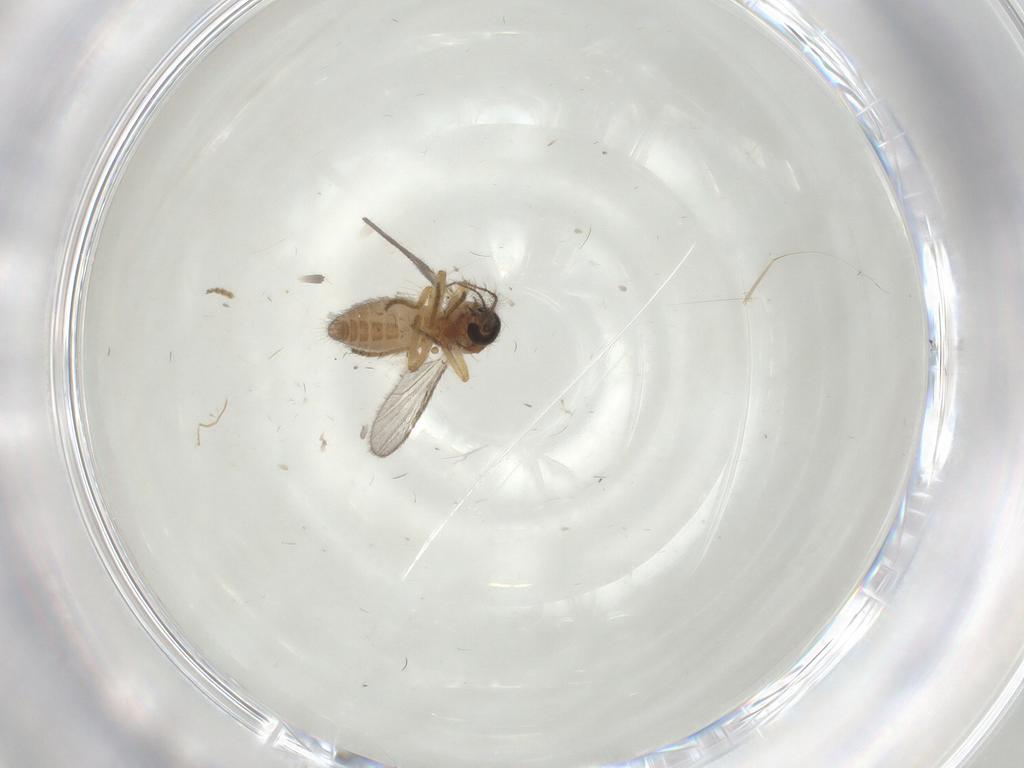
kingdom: Animalia
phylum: Arthropoda
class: Insecta
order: Diptera
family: Ceratopogonidae
